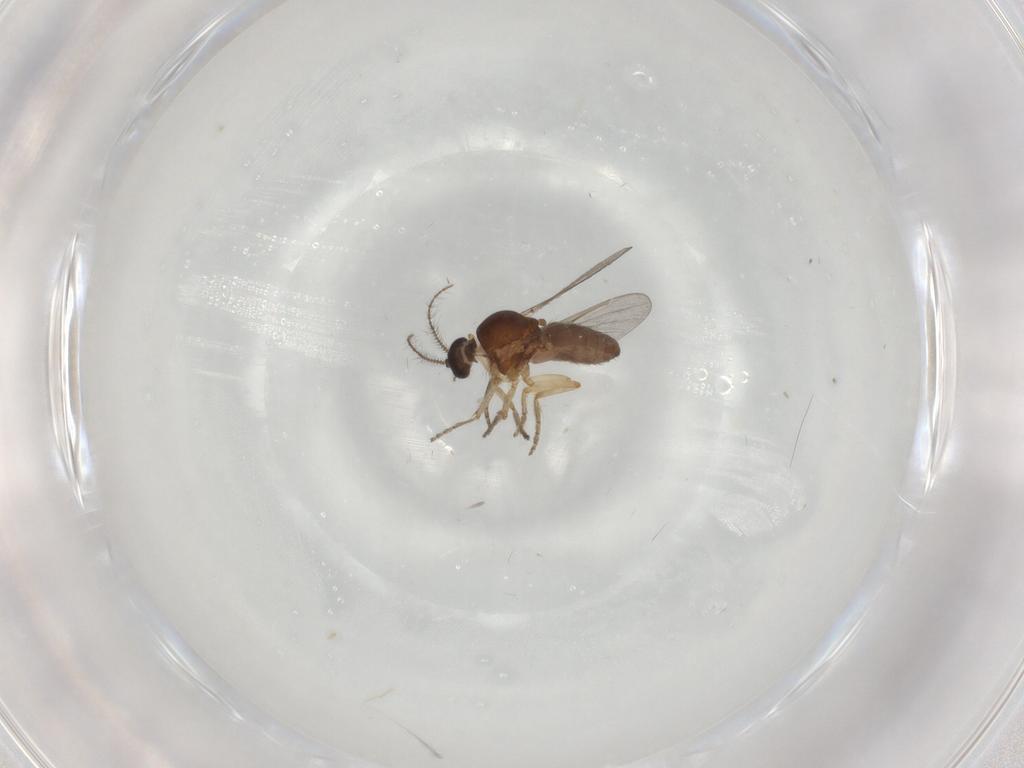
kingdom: Animalia
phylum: Arthropoda
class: Insecta
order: Diptera
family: Ceratopogonidae
